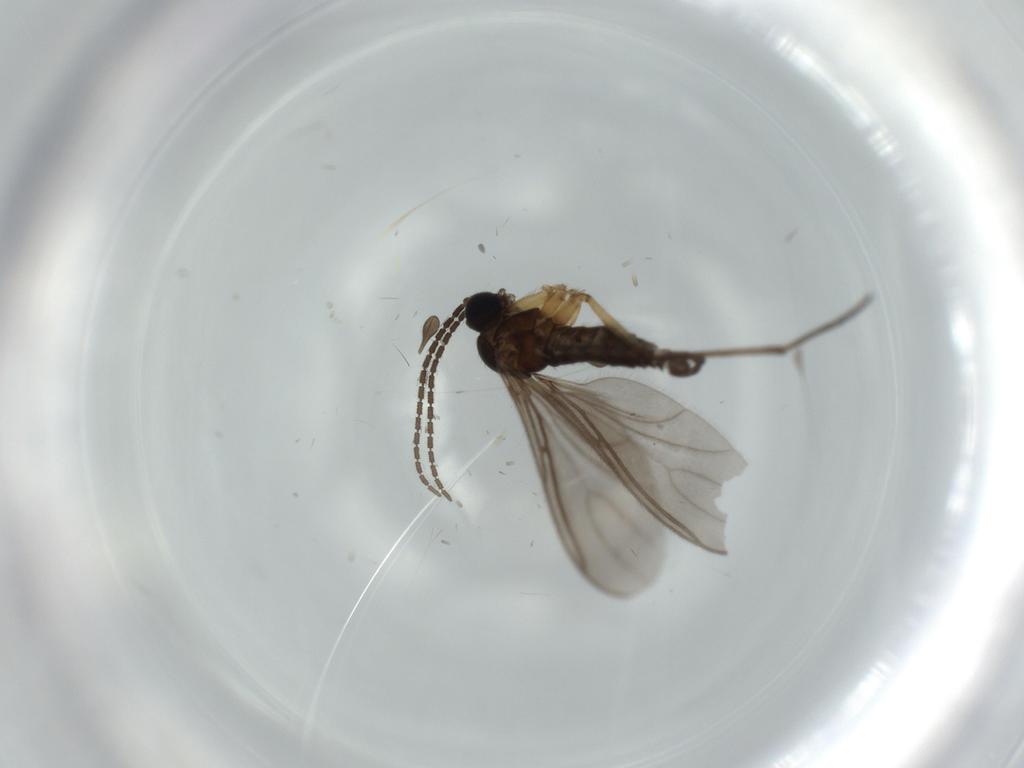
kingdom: Animalia
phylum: Arthropoda
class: Insecta
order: Diptera
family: Sciaridae
